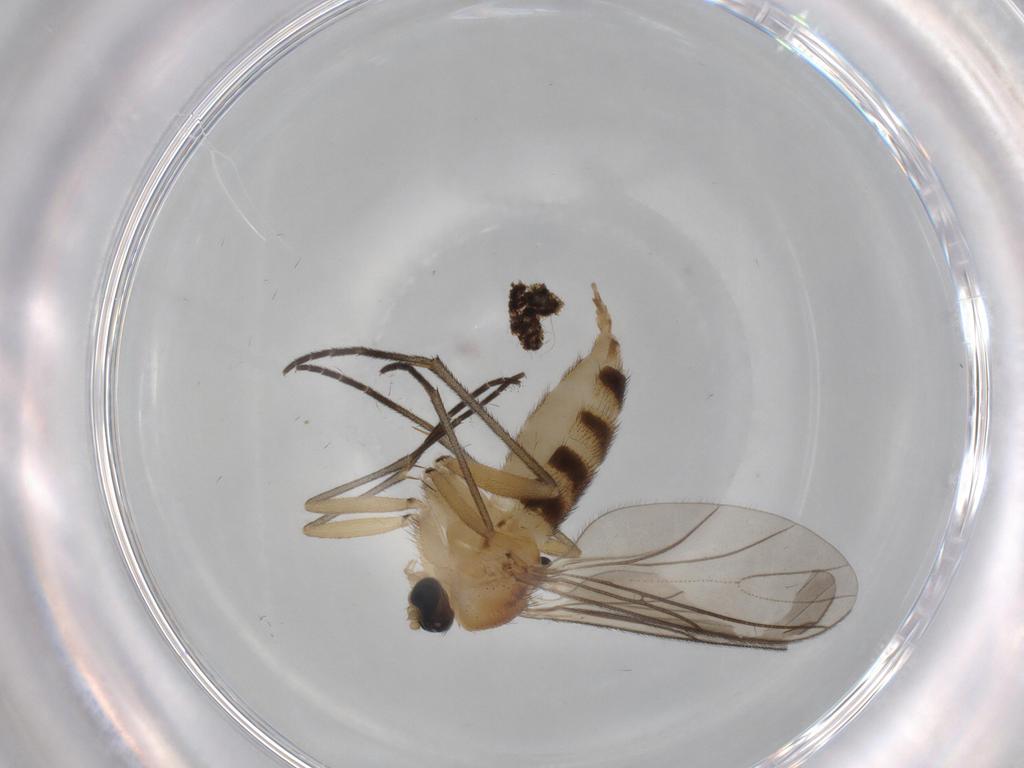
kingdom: Animalia
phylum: Arthropoda
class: Insecta
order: Diptera
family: Sciaridae
